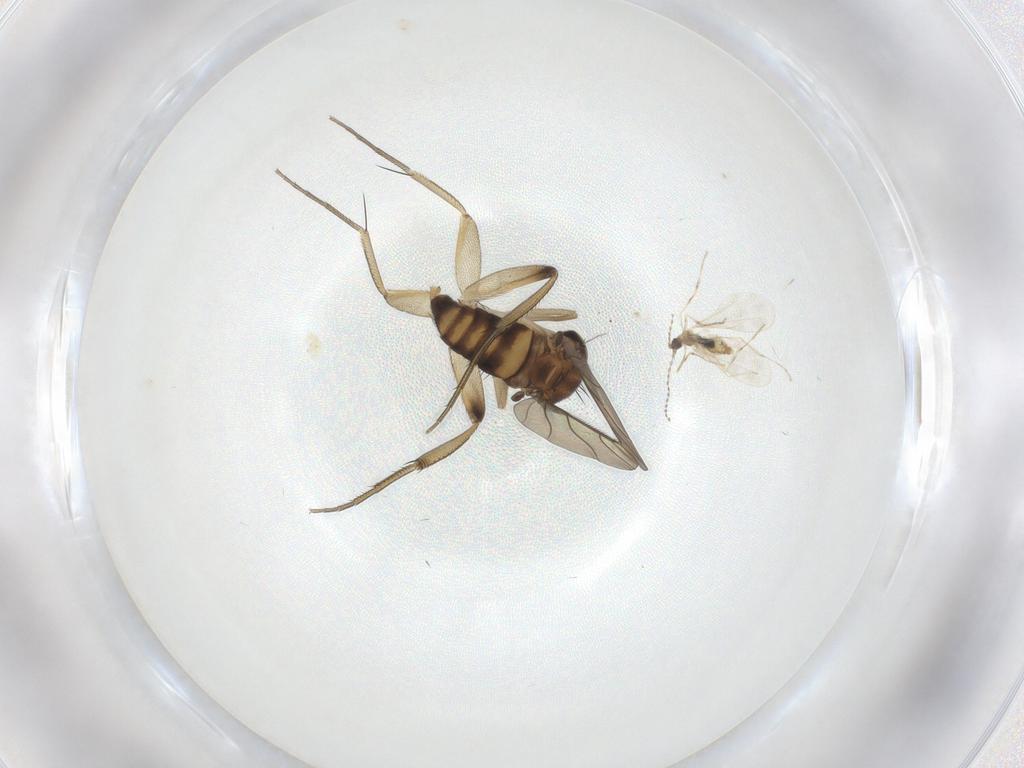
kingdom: Animalia
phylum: Arthropoda
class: Insecta
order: Diptera
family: Phoridae
